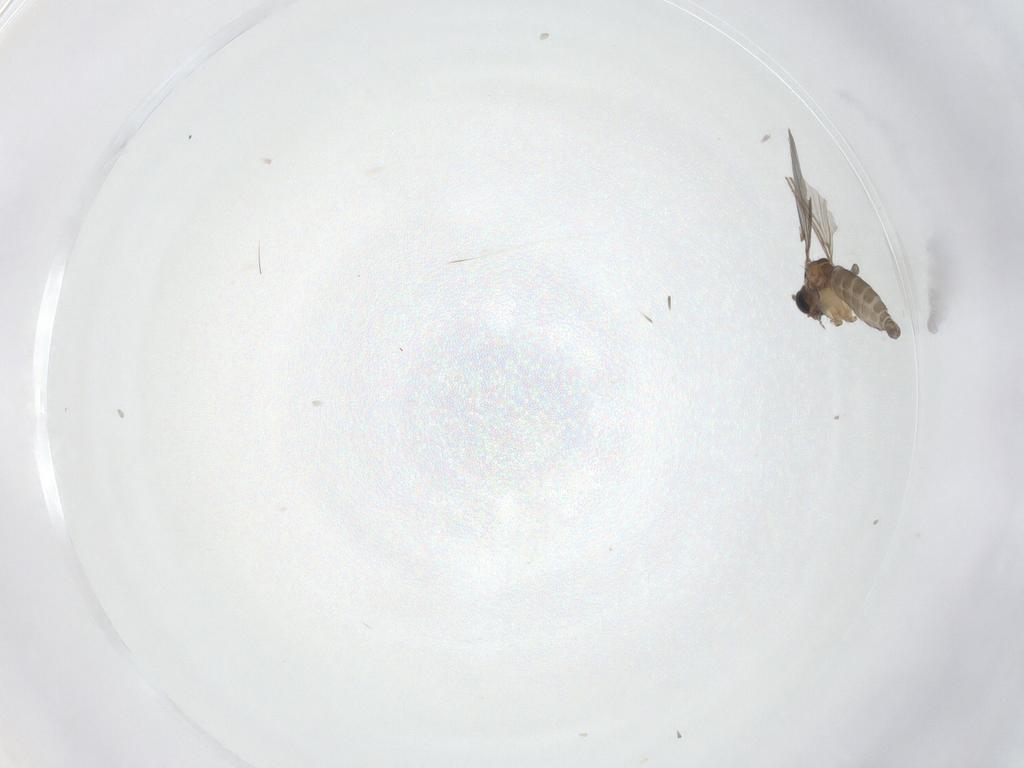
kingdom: Animalia
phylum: Arthropoda
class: Insecta
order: Diptera
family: Sciaridae
